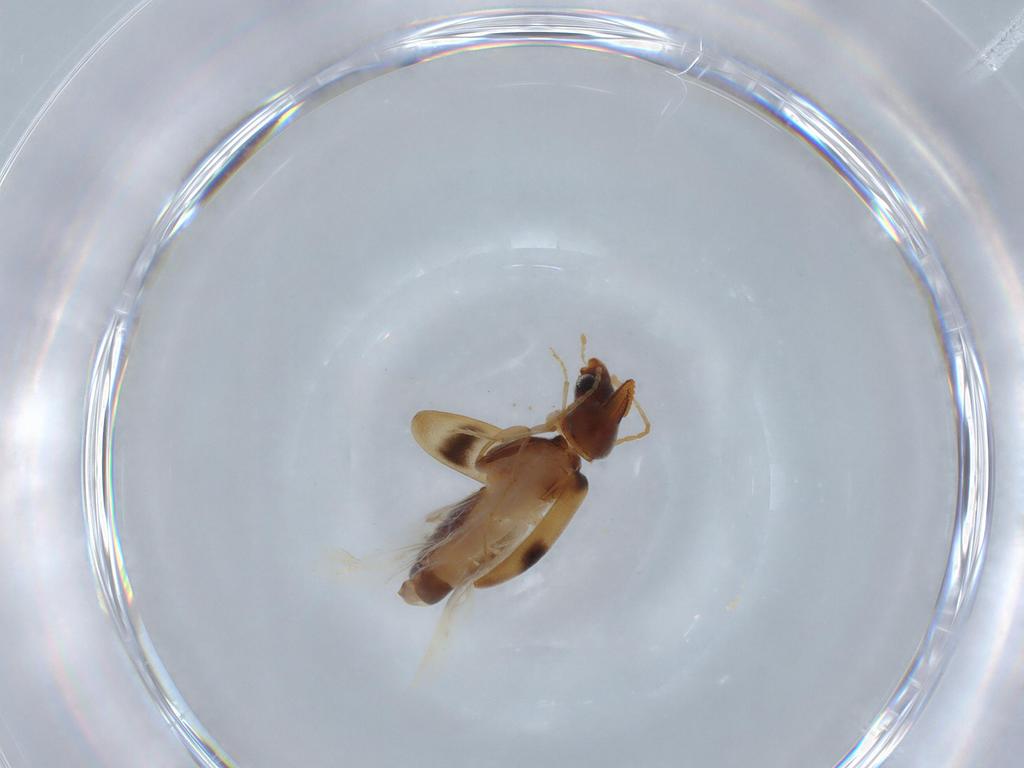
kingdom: Animalia
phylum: Arthropoda
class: Insecta
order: Coleoptera
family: Anthicidae
